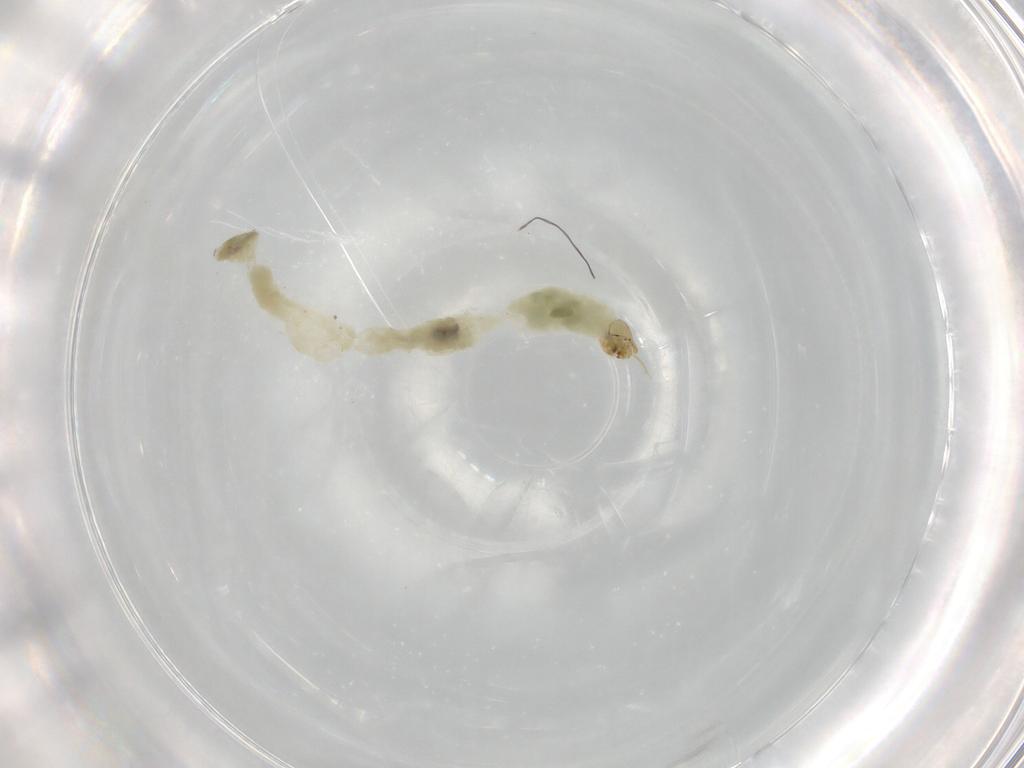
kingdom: Animalia
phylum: Arthropoda
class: Insecta
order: Diptera
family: Chironomidae
